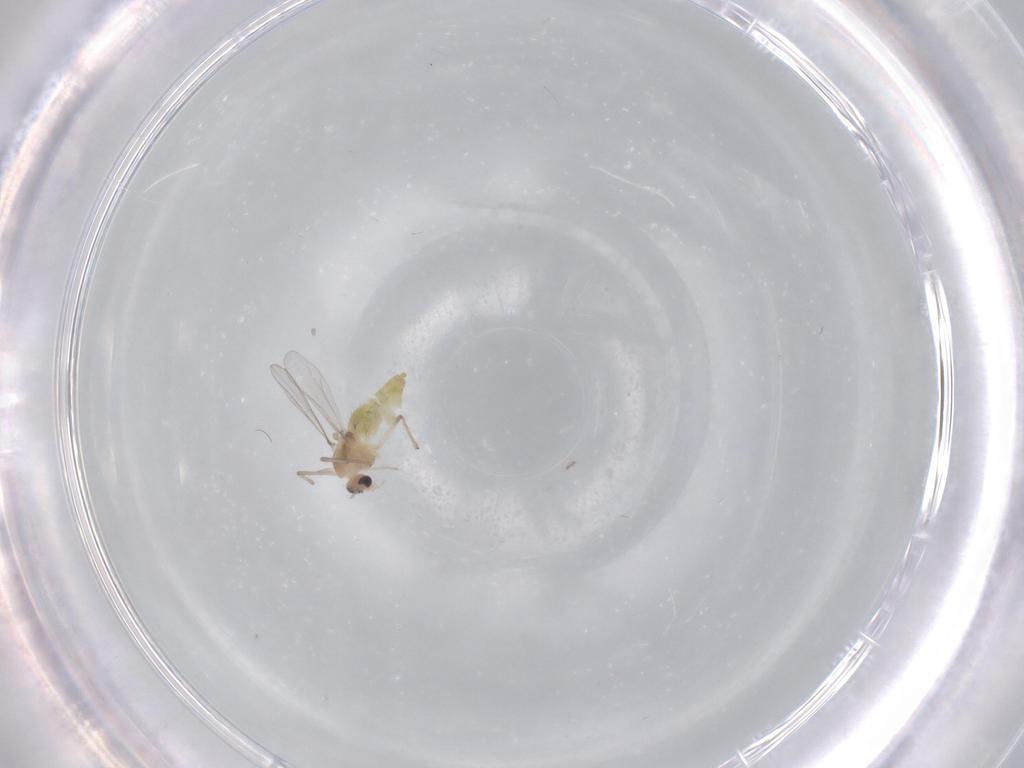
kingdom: Animalia
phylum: Arthropoda
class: Insecta
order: Diptera
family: Chironomidae
